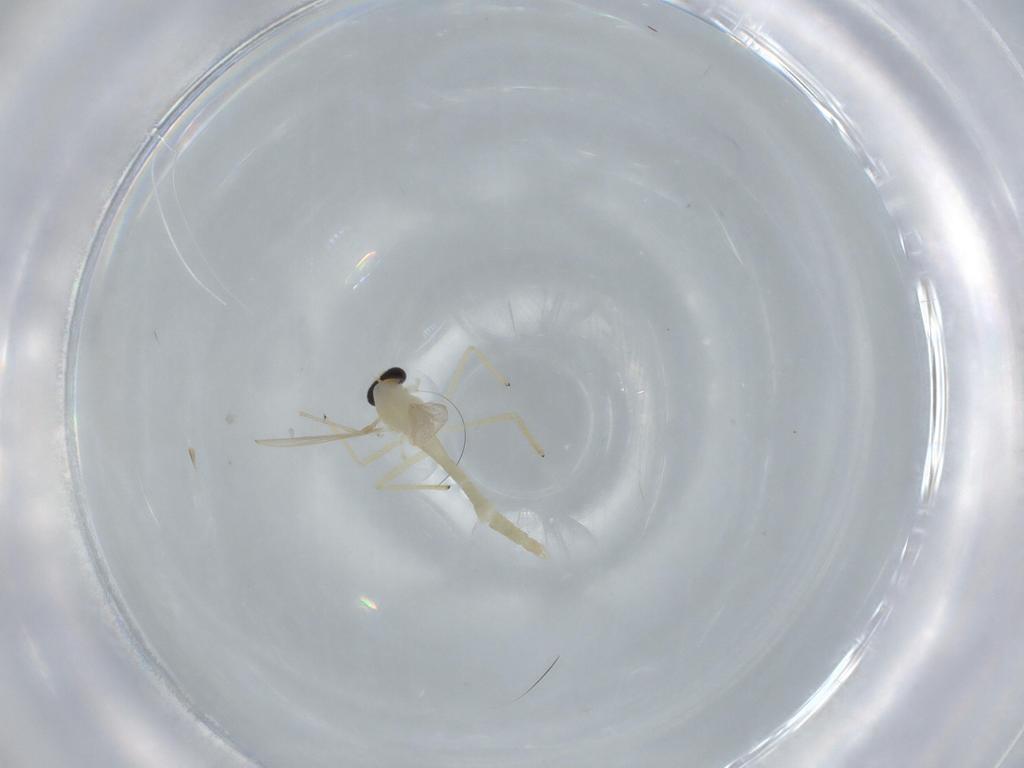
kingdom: Animalia
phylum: Arthropoda
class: Insecta
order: Diptera
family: Chironomidae
